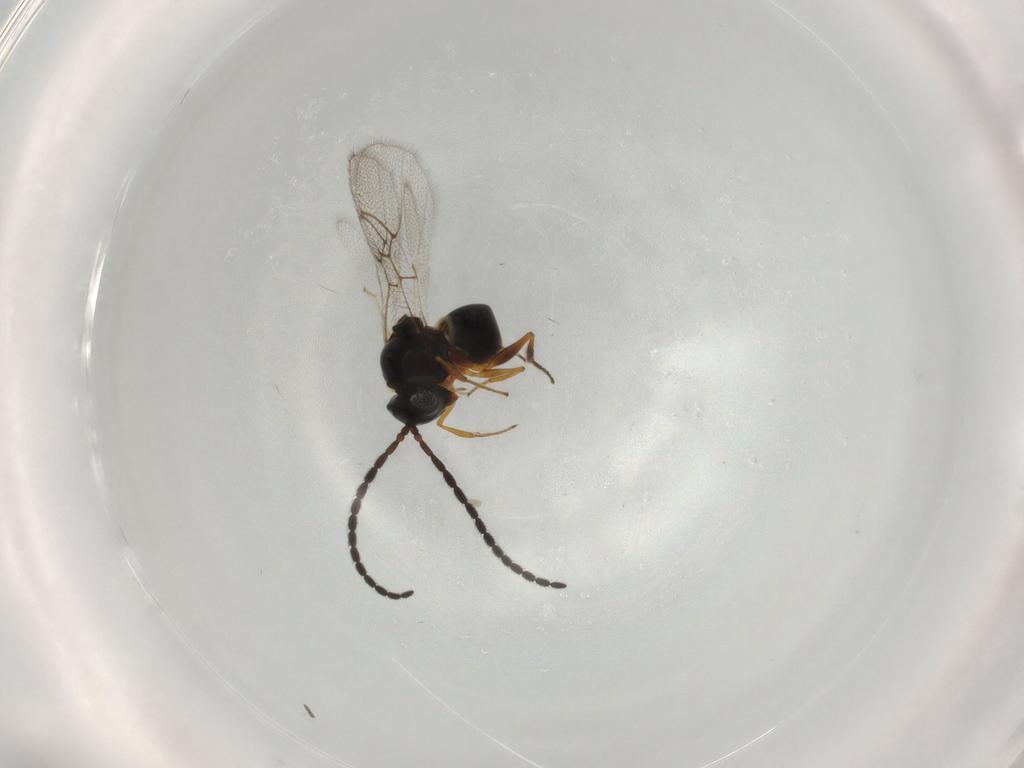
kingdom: Animalia
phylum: Arthropoda
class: Insecta
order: Hymenoptera
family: Figitidae
